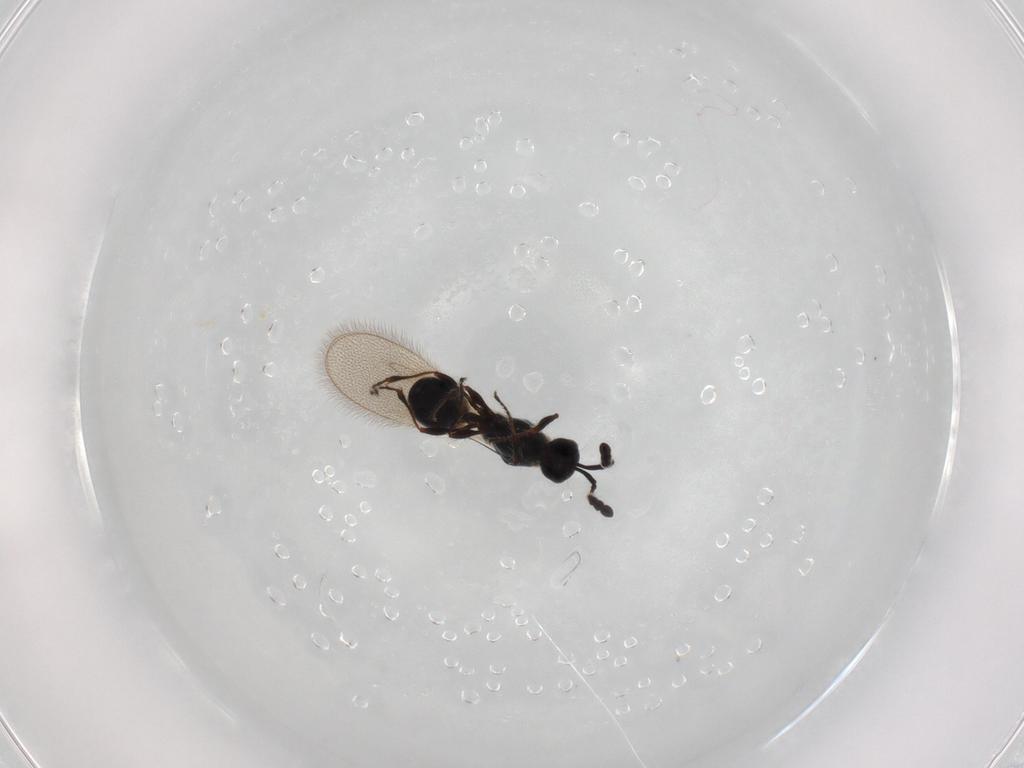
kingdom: Animalia
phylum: Arthropoda
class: Insecta
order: Hymenoptera
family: Diapriidae
